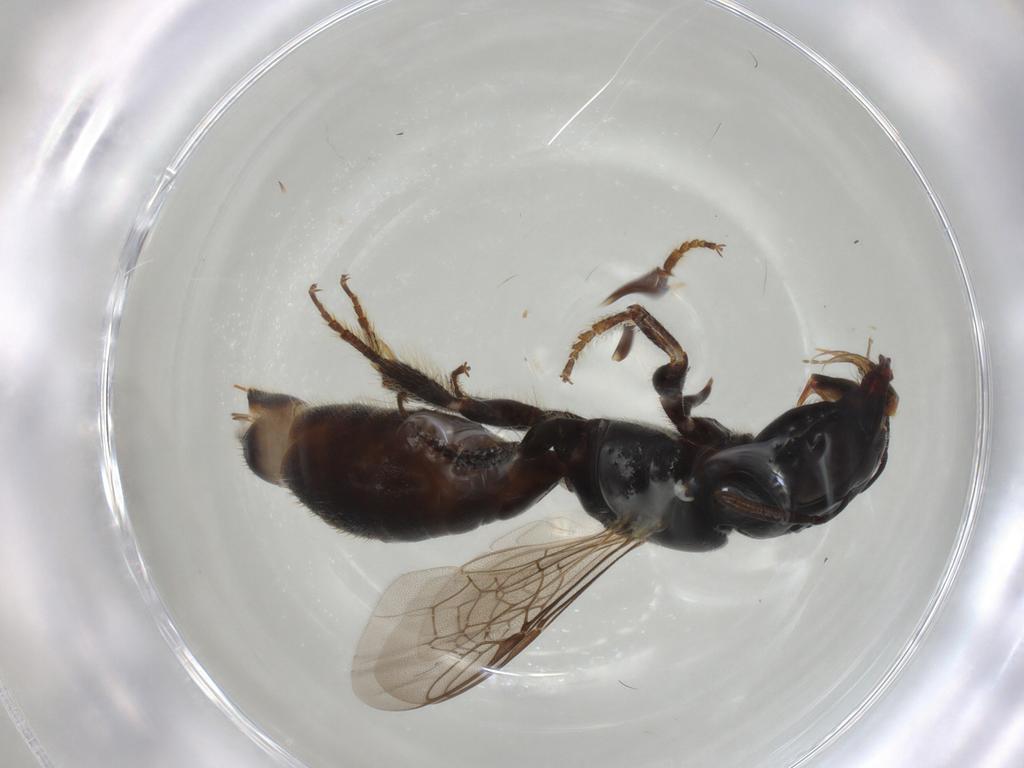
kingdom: Animalia
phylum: Arthropoda
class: Insecta
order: Hymenoptera
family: Apidae
